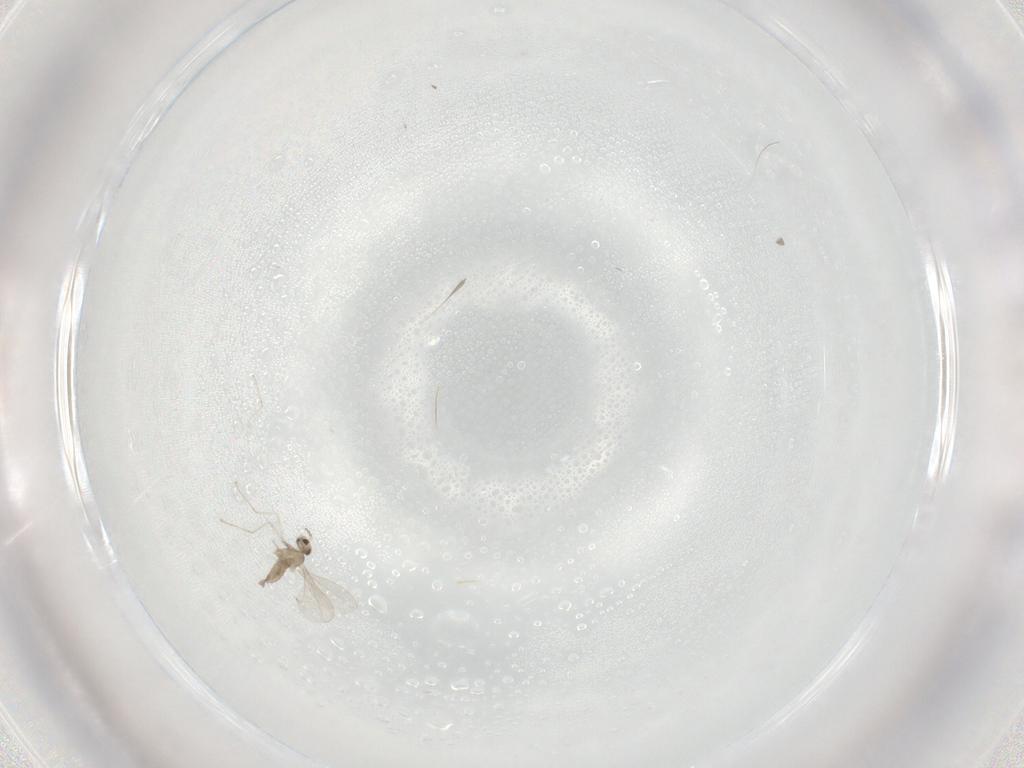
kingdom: Animalia
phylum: Arthropoda
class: Insecta
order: Diptera
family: Cecidomyiidae
